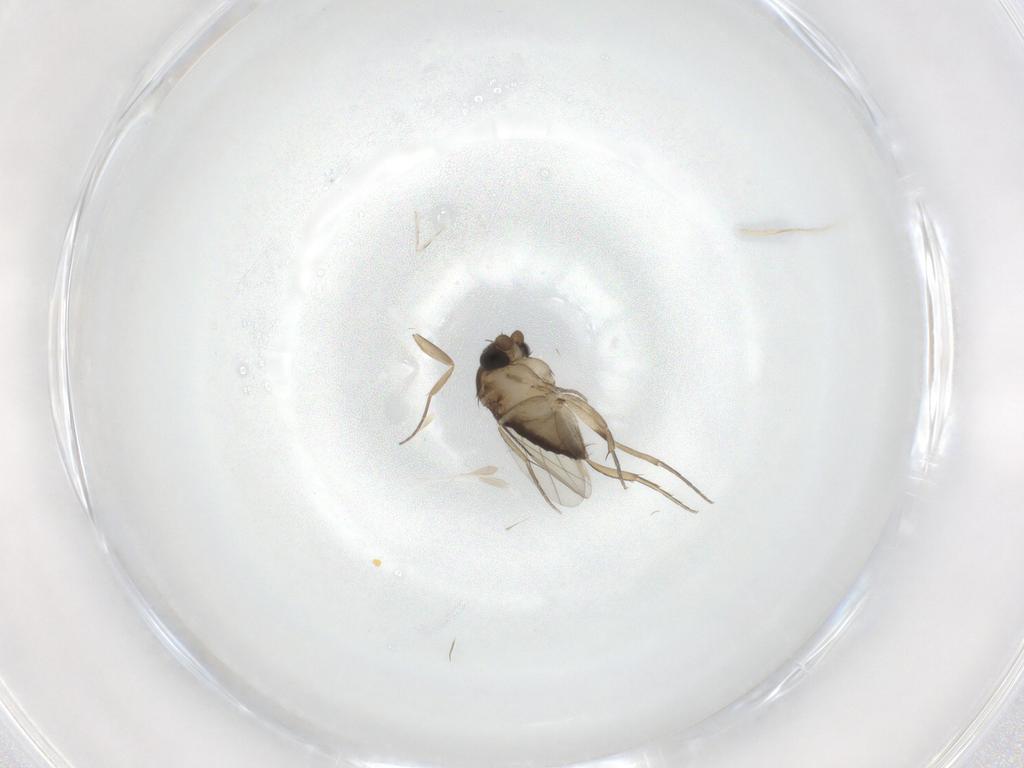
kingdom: Animalia
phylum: Arthropoda
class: Insecta
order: Diptera
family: Phoridae
